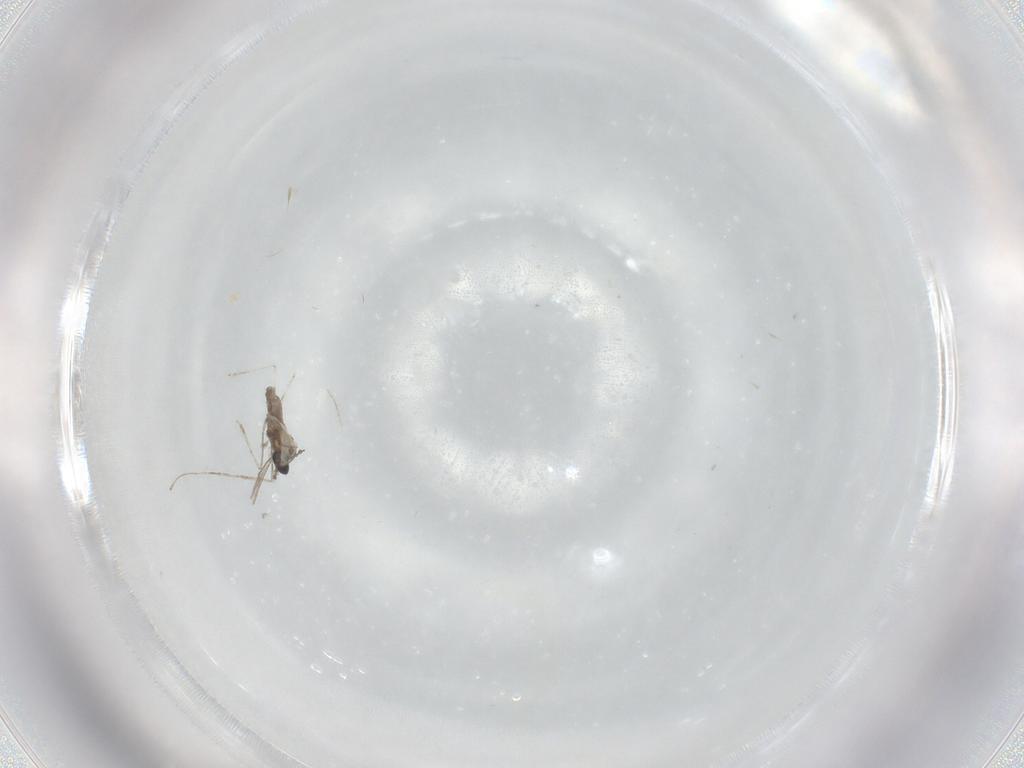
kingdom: Animalia
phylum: Arthropoda
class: Insecta
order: Diptera
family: Cecidomyiidae
